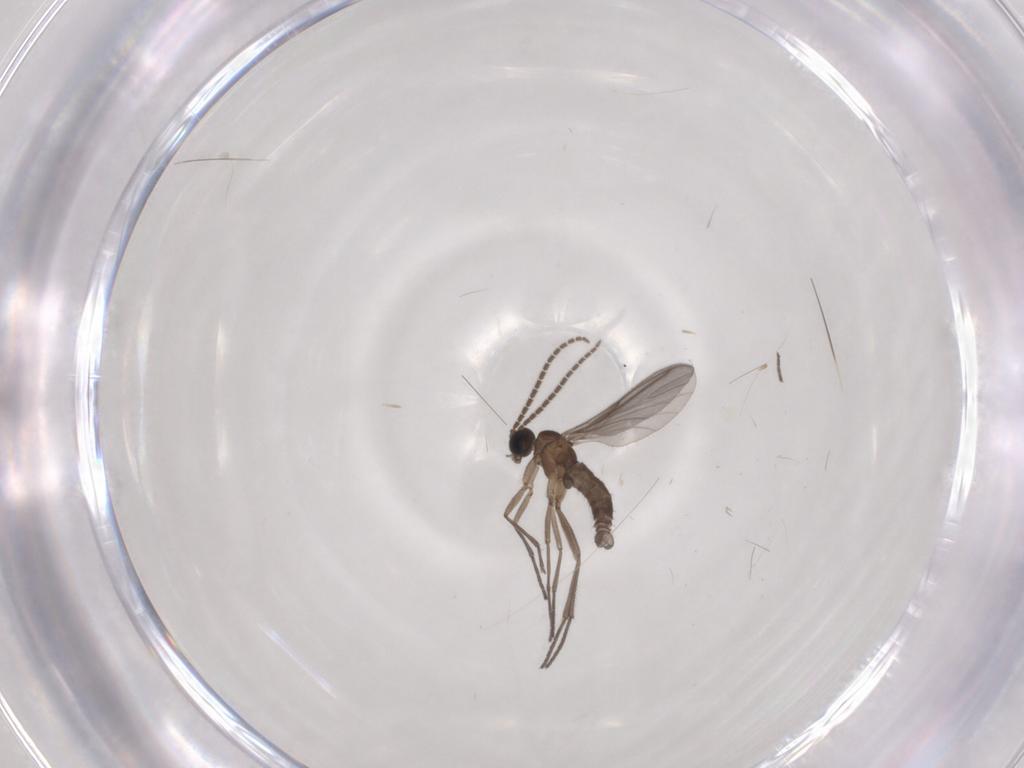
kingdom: Animalia
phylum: Arthropoda
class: Insecta
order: Diptera
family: Sciaridae
